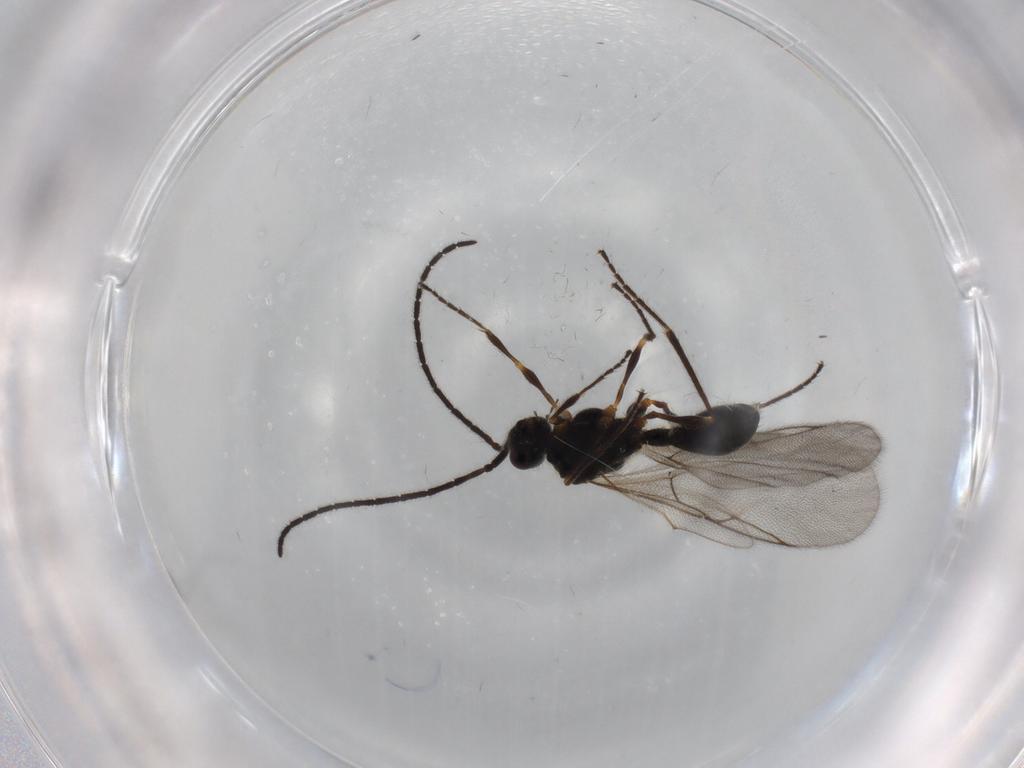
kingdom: Animalia
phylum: Arthropoda
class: Insecta
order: Hymenoptera
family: Diapriidae
